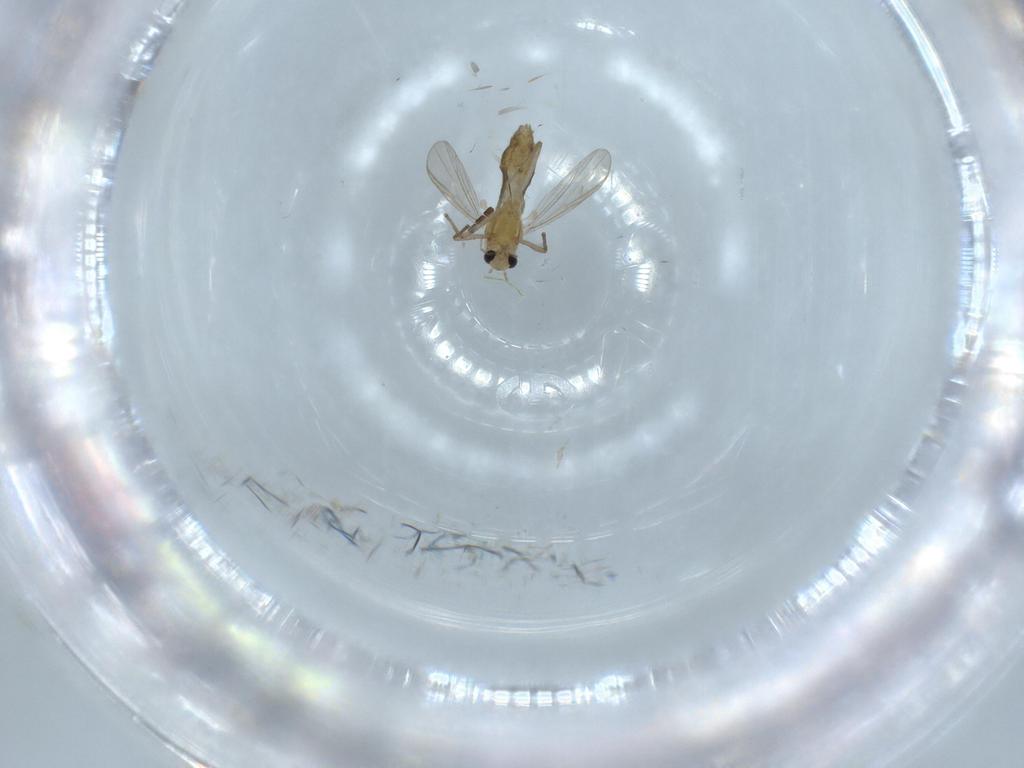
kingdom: Animalia
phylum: Arthropoda
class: Insecta
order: Diptera
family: Chironomidae
